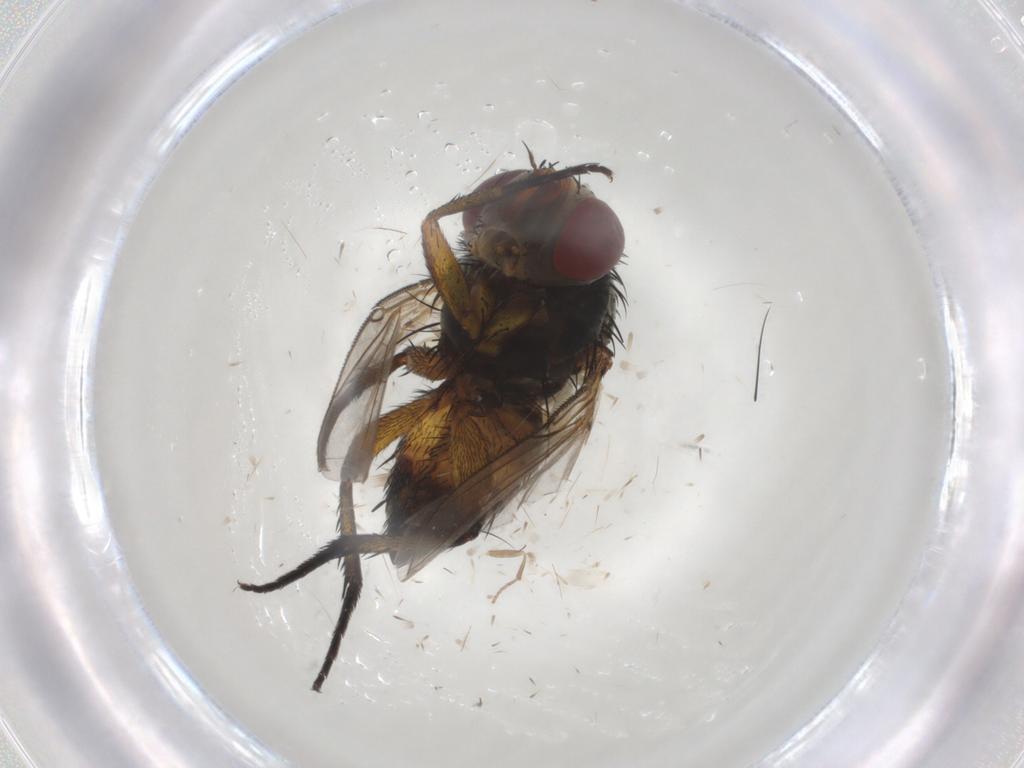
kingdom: Animalia
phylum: Arthropoda
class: Insecta
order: Diptera
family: Tachinidae
